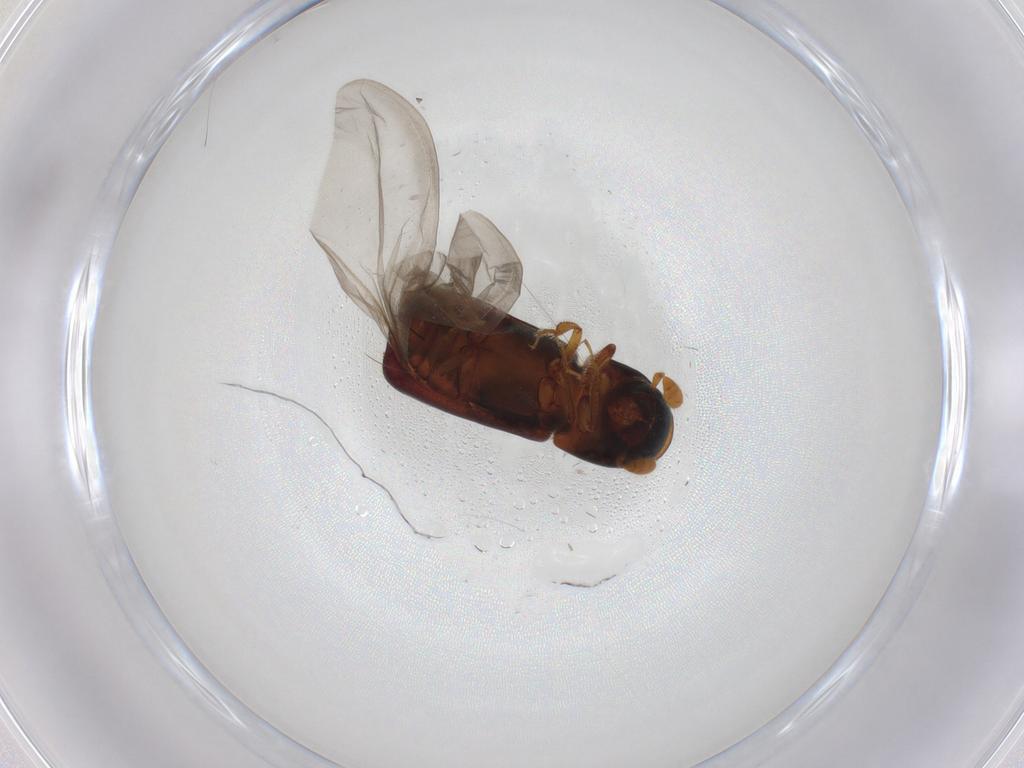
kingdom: Animalia
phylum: Arthropoda
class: Insecta
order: Coleoptera
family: Curculionidae
